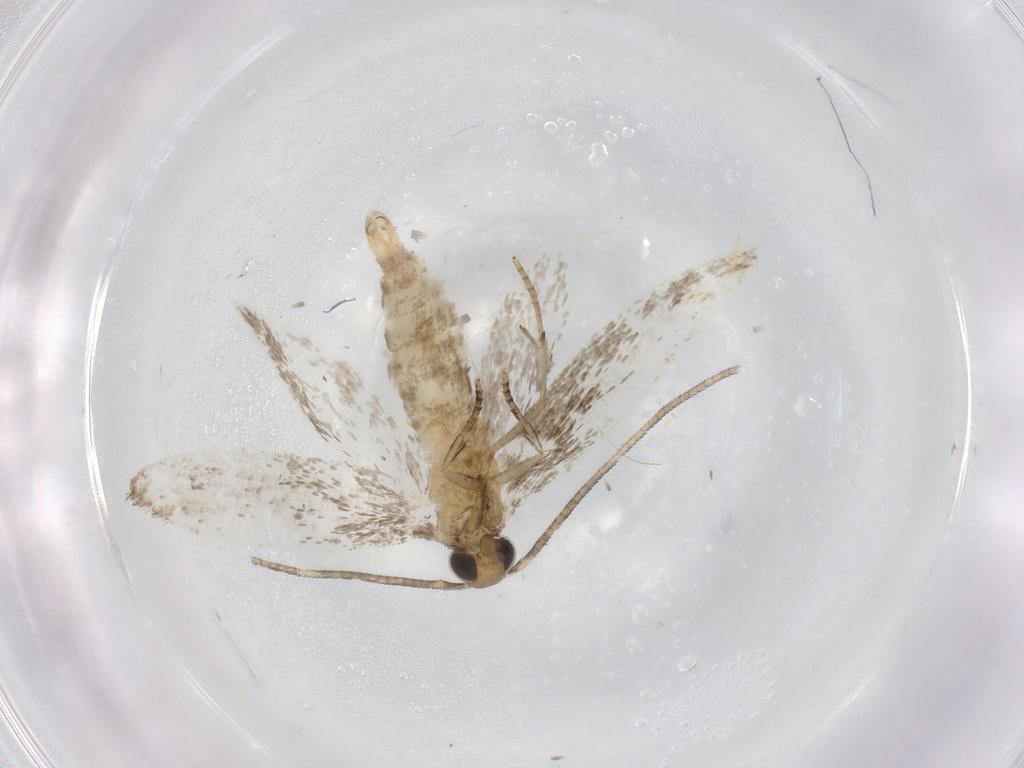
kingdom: Animalia
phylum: Arthropoda
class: Insecta
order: Lepidoptera
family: Gelechiidae
